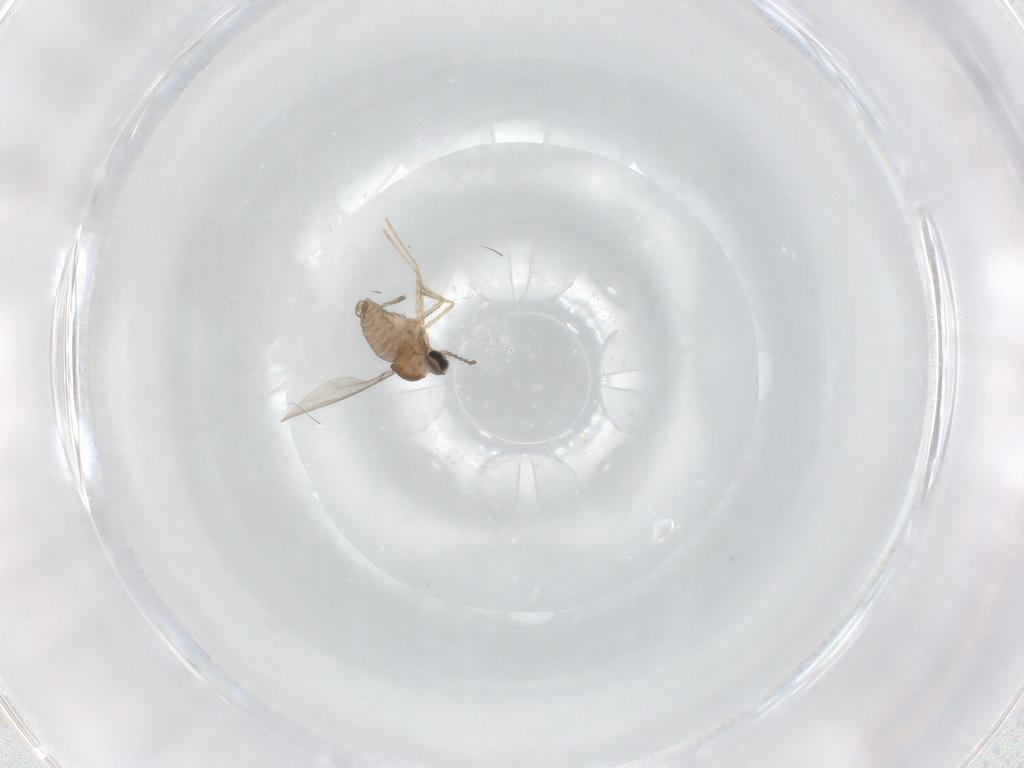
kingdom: Animalia
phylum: Arthropoda
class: Insecta
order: Diptera
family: Cecidomyiidae
